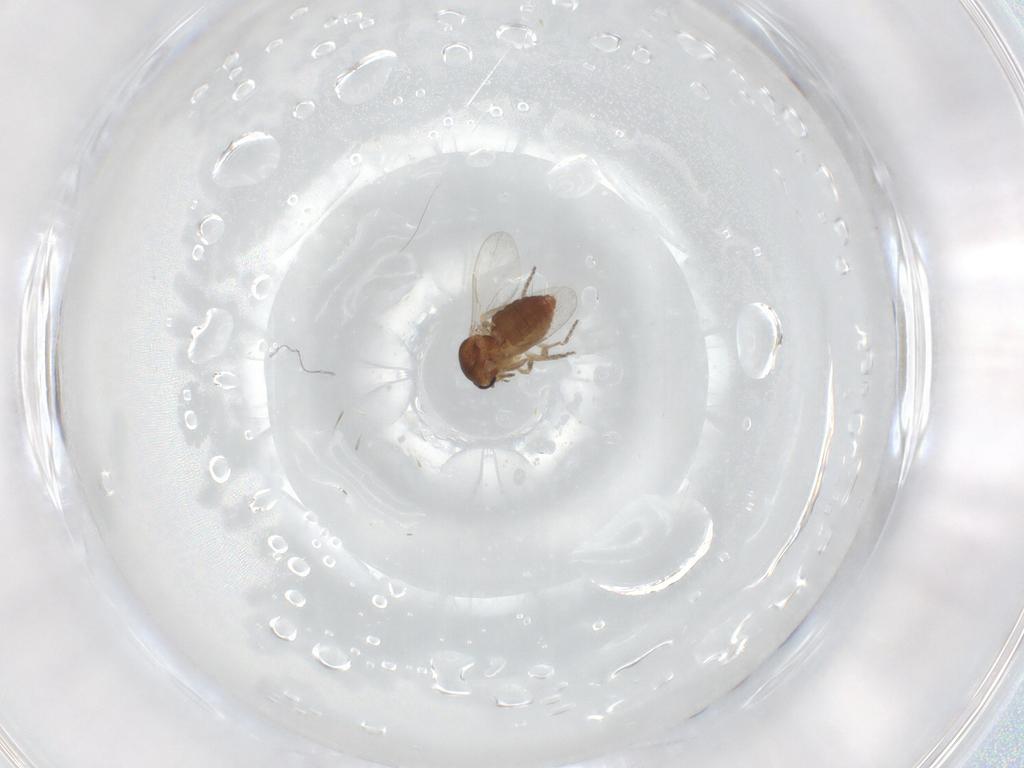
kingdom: Animalia
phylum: Arthropoda
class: Insecta
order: Diptera
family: Ceratopogonidae
